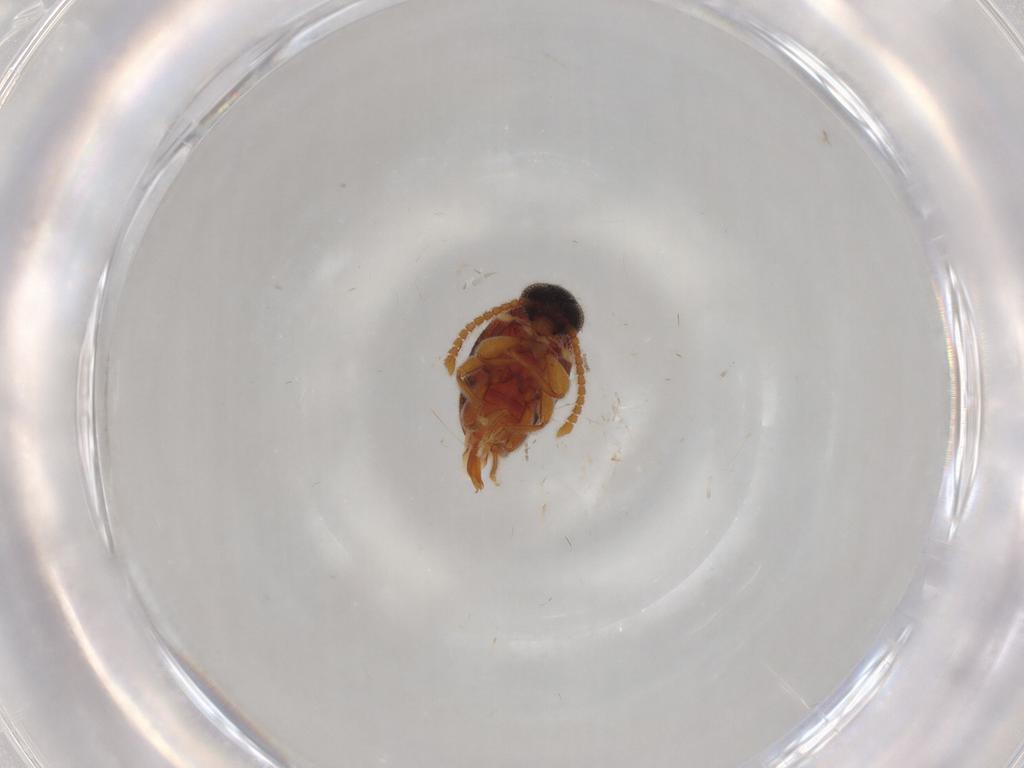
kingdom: Animalia
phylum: Arthropoda
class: Insecta
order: Coleoptera
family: Aderidae
